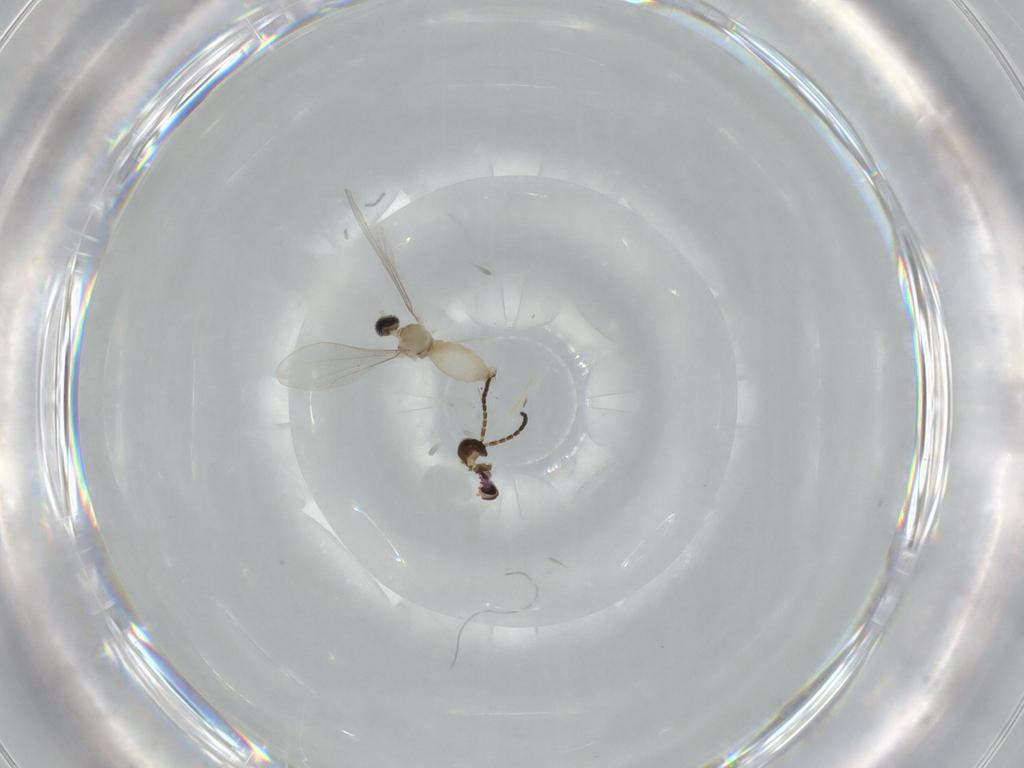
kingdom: Animalia
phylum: Arthropoda
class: Insecta
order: Diptera
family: Cecidomyiidae
